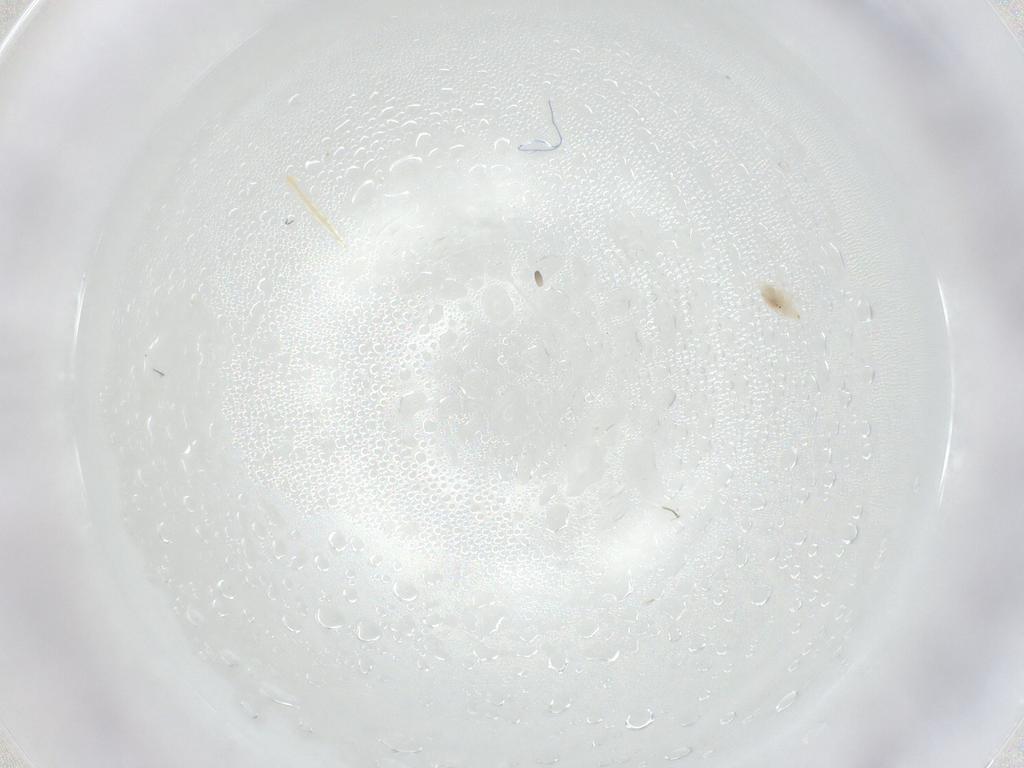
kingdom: Animalia
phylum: Arthropoda
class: Arachnida
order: Trombidiformes
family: Bdellidae
